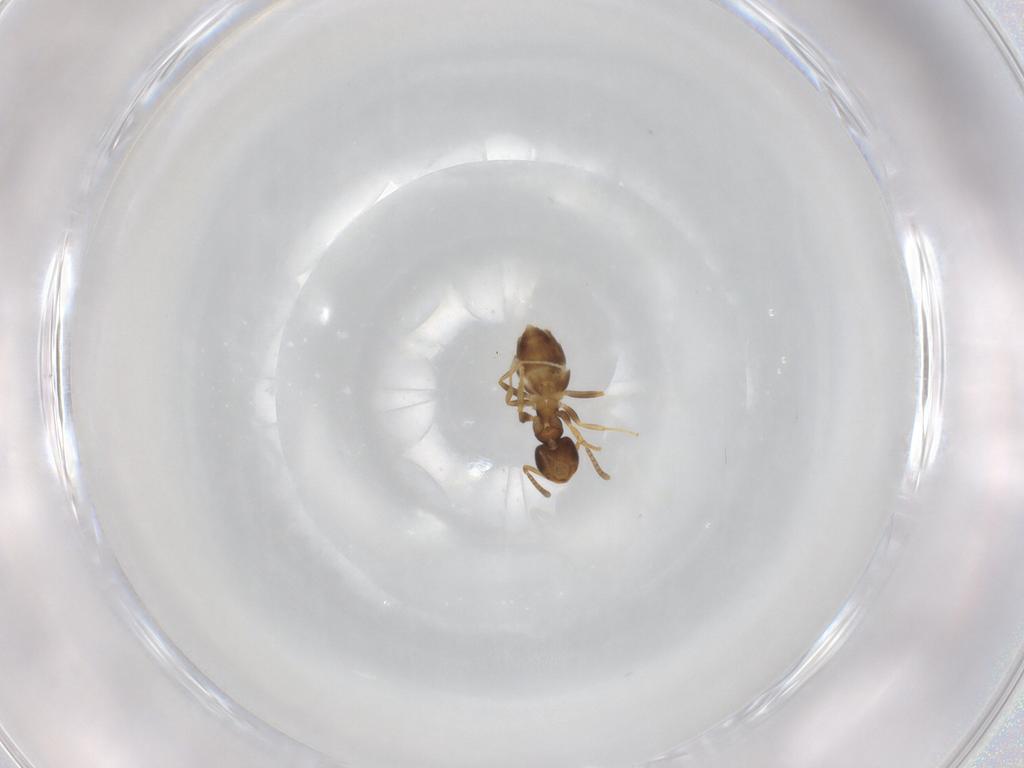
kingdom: Animalia
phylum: Arthropoda
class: Insecta
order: Hymenoptera
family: Formicidae
